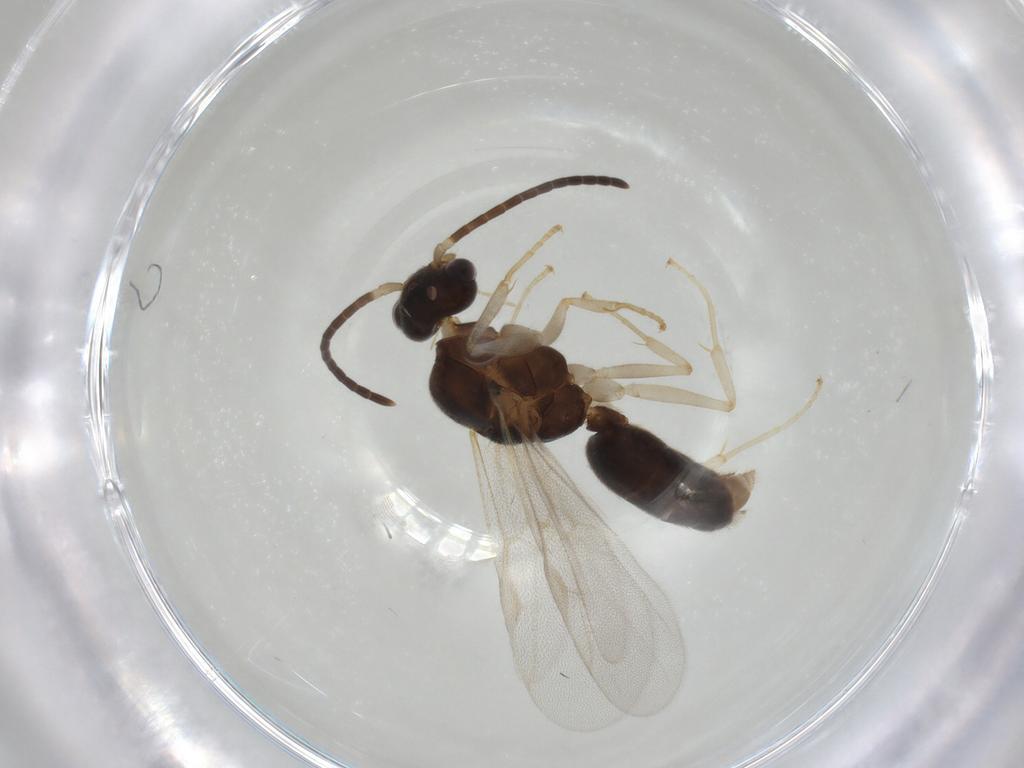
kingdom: Animalia
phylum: Arthropoda
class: Insecta
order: Hymenoptera
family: Formicidae
